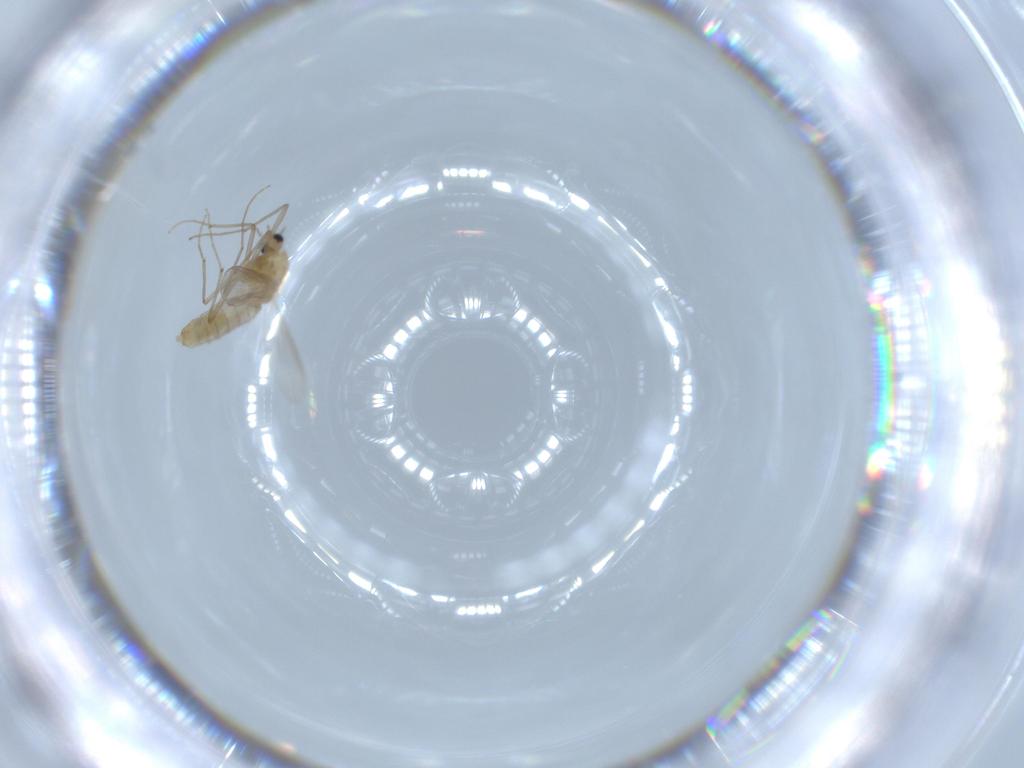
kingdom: Animalia
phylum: Arthropoda
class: Insecta
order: Diptera
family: Chironomidae
